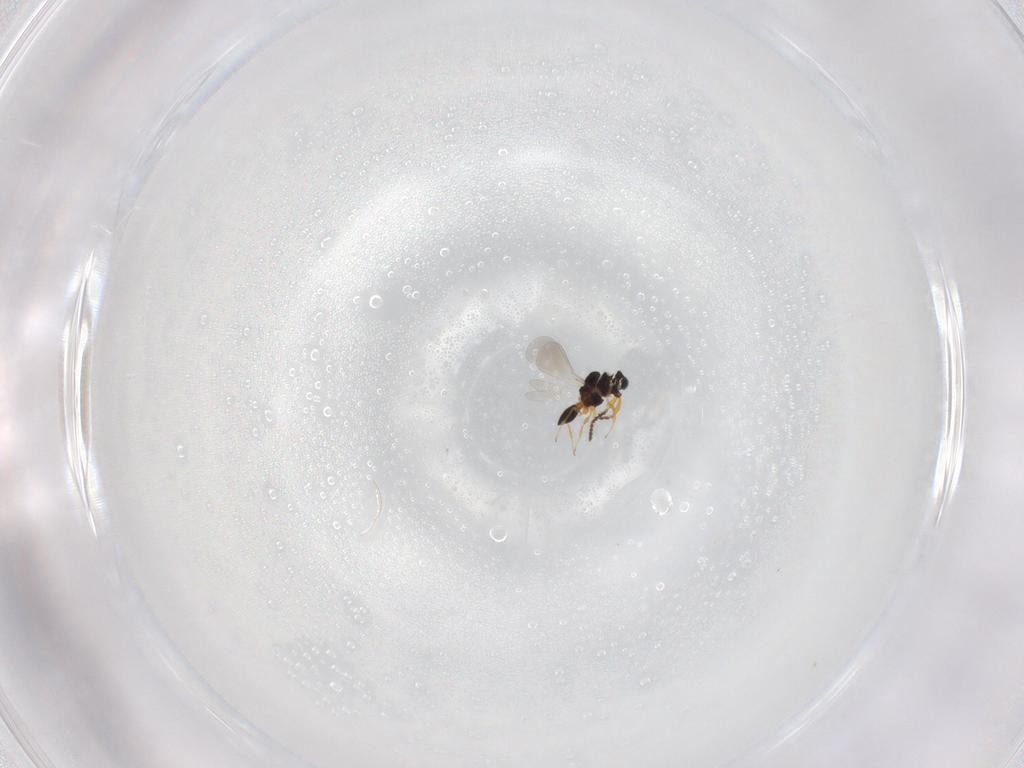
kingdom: Animalia
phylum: Arthropoda
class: Insecta
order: Hymenoptera
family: Platygastridae
